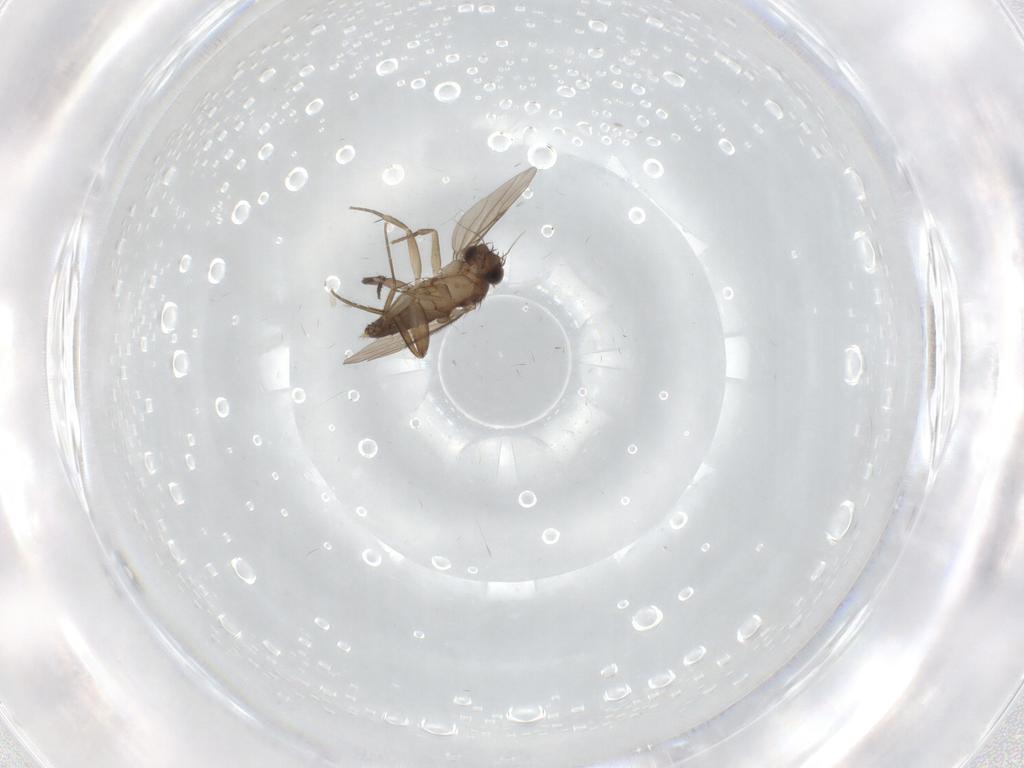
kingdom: Animalia
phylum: Arthropoda
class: Insecta
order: Diptera
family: Phoridae
